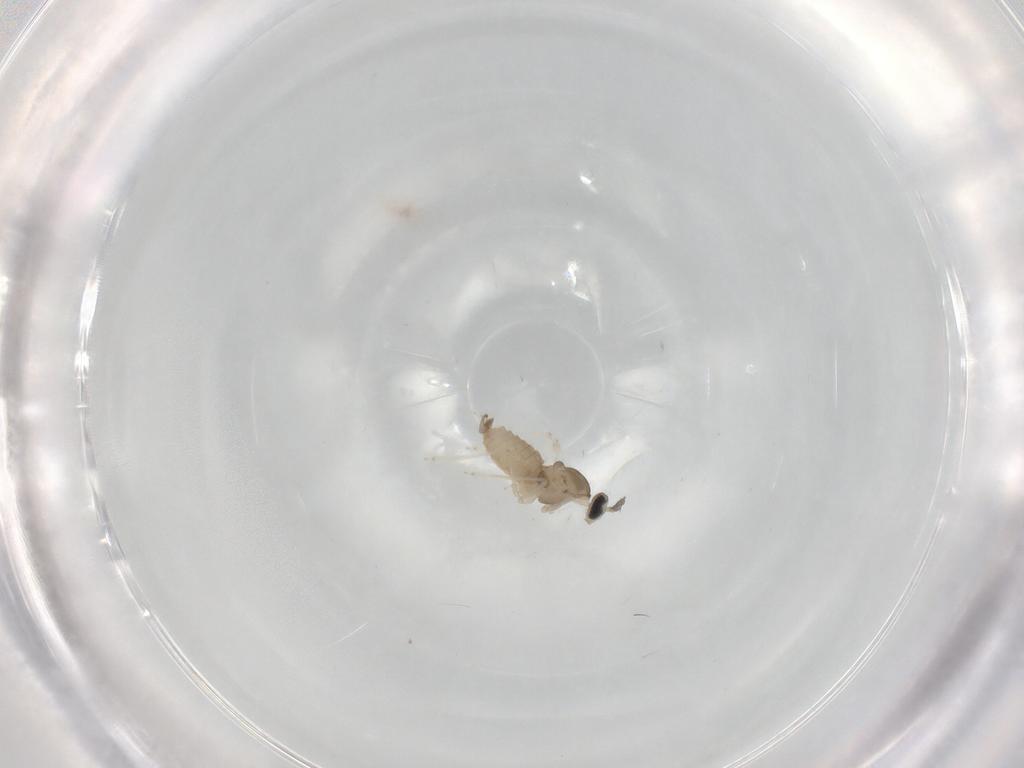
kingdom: Animalia
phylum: Arthropoda
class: Insecta
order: Diptera
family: Cecidomyiidae
